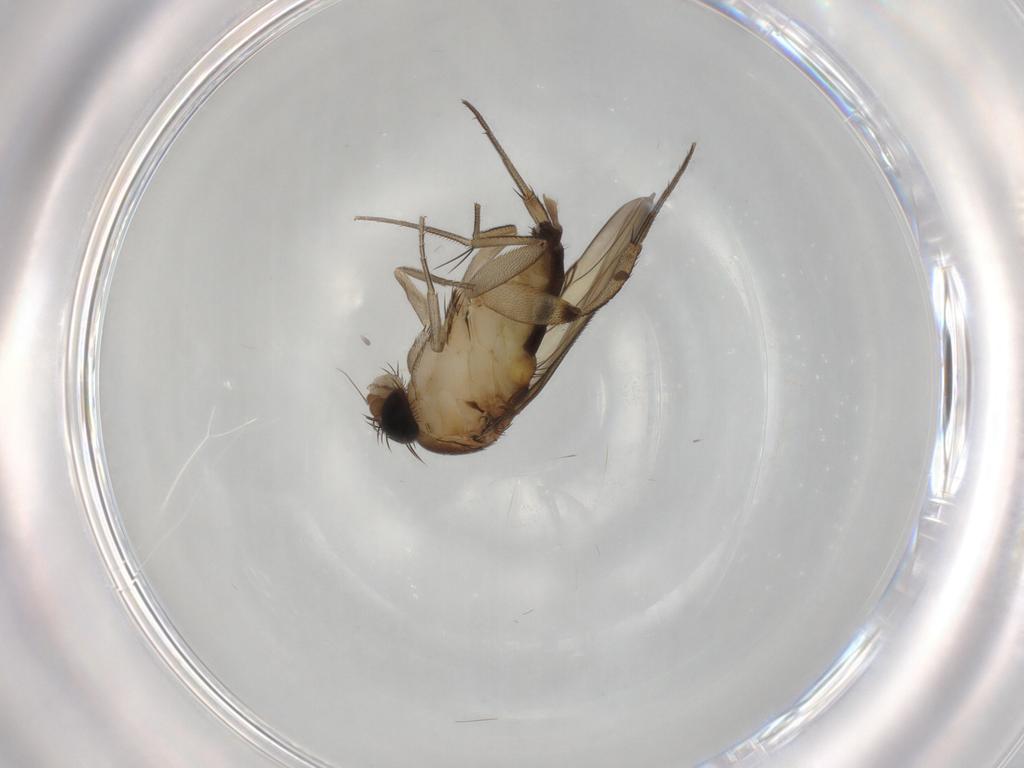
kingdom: Animalia
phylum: Arthropoda
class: Insecta
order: Diptera
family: Phoridae
